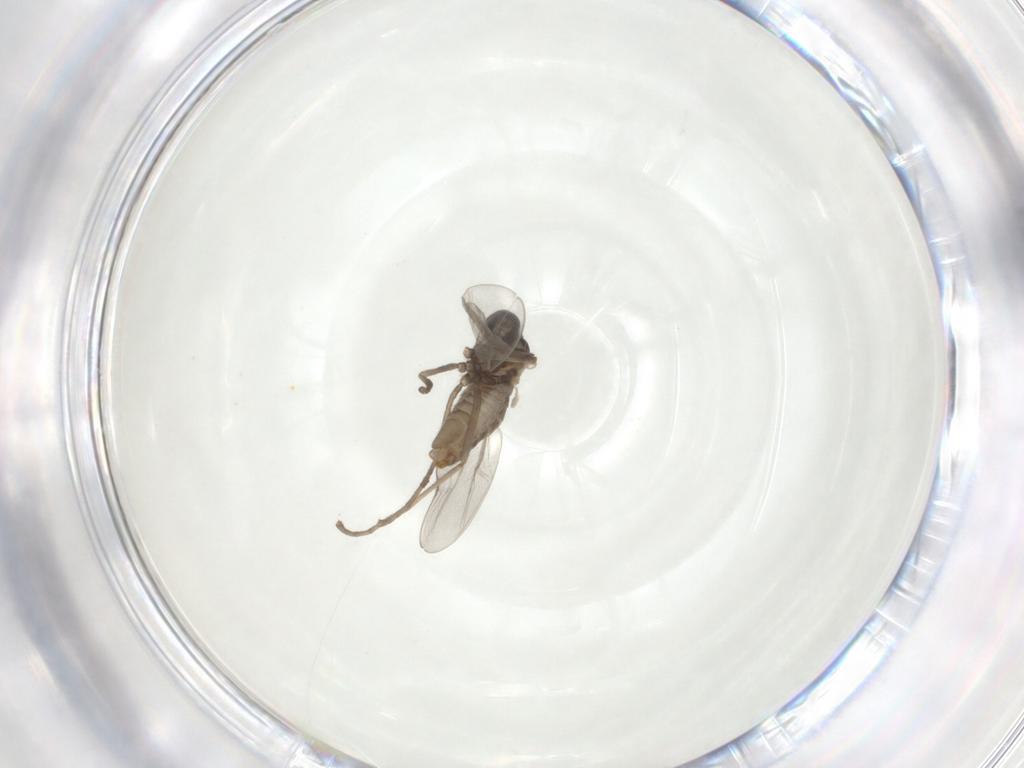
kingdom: Animalia
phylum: Arthropoda
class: Insecta
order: Diptera
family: Cecidomyiidae
